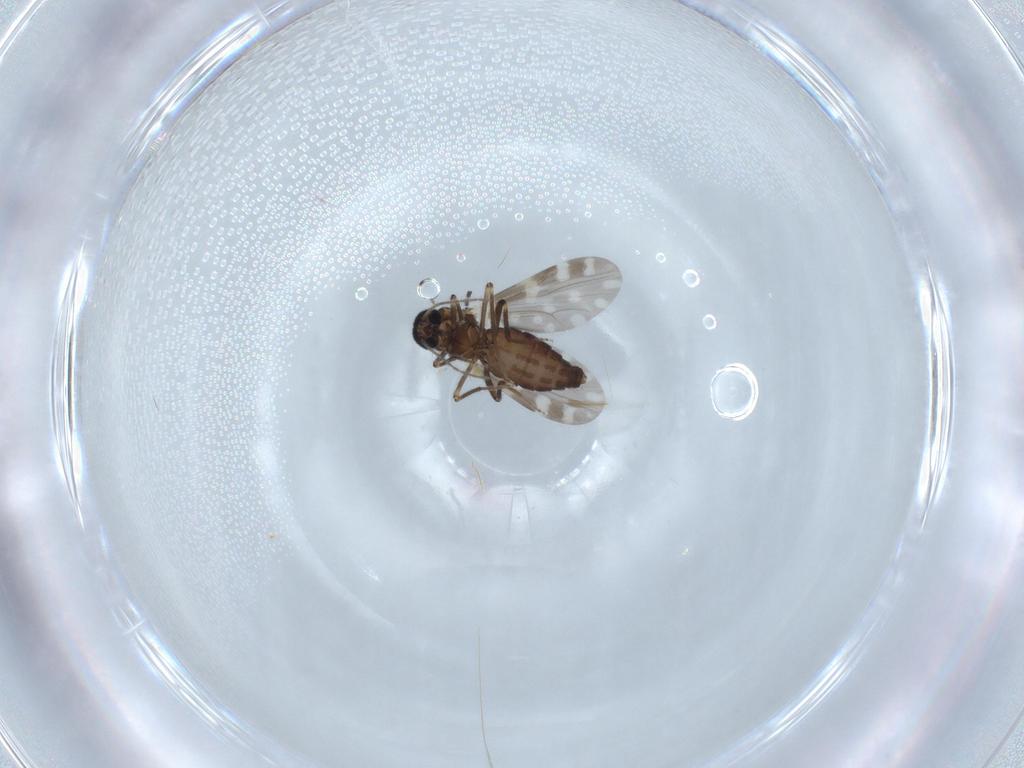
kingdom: Animalia
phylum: Arthropoda
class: Insecta
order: Diptera
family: Ceratopogonidae
